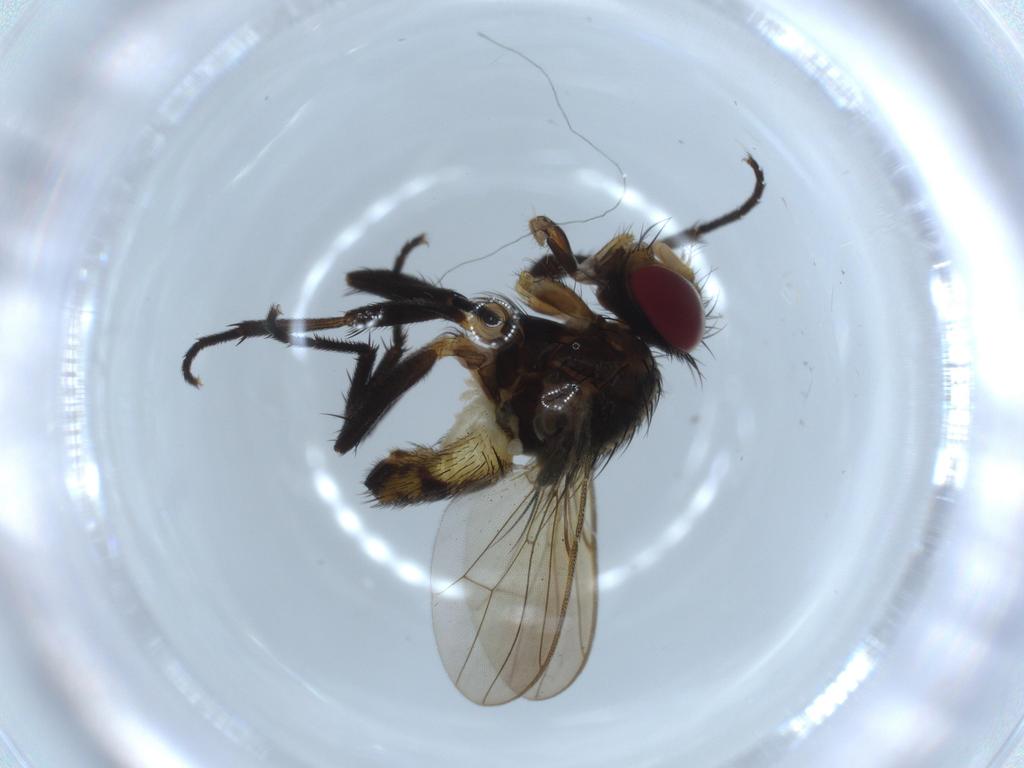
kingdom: Animalia
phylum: Arthropoda
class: Insecta
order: Diptera
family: Anthomyiidae
